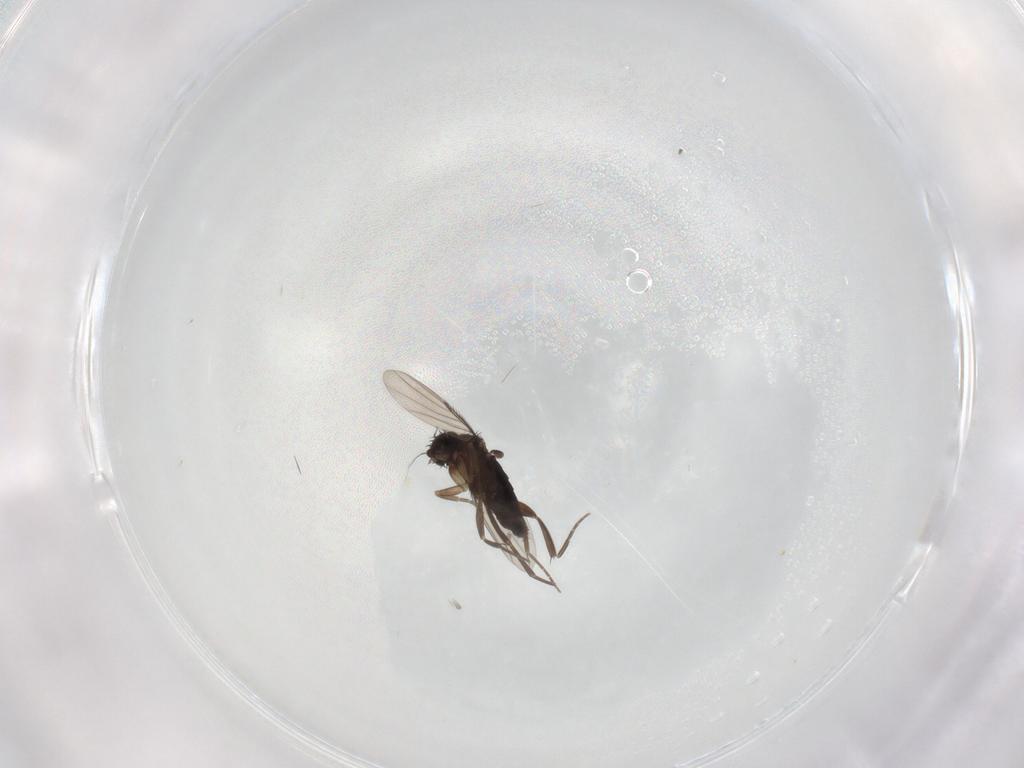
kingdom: Animalia
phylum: Arthropoda
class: Insecta
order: Diptera
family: Phoridae
